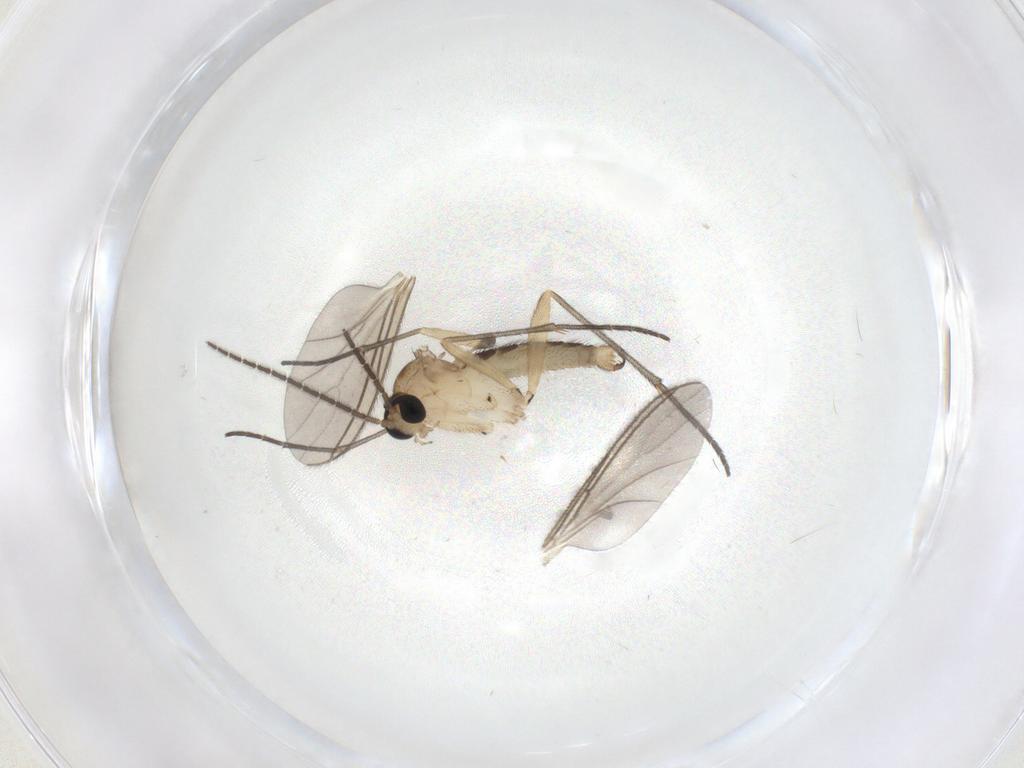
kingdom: Animalia
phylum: Arthropoda
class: Insecta
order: Diptera
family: Sciaridae
